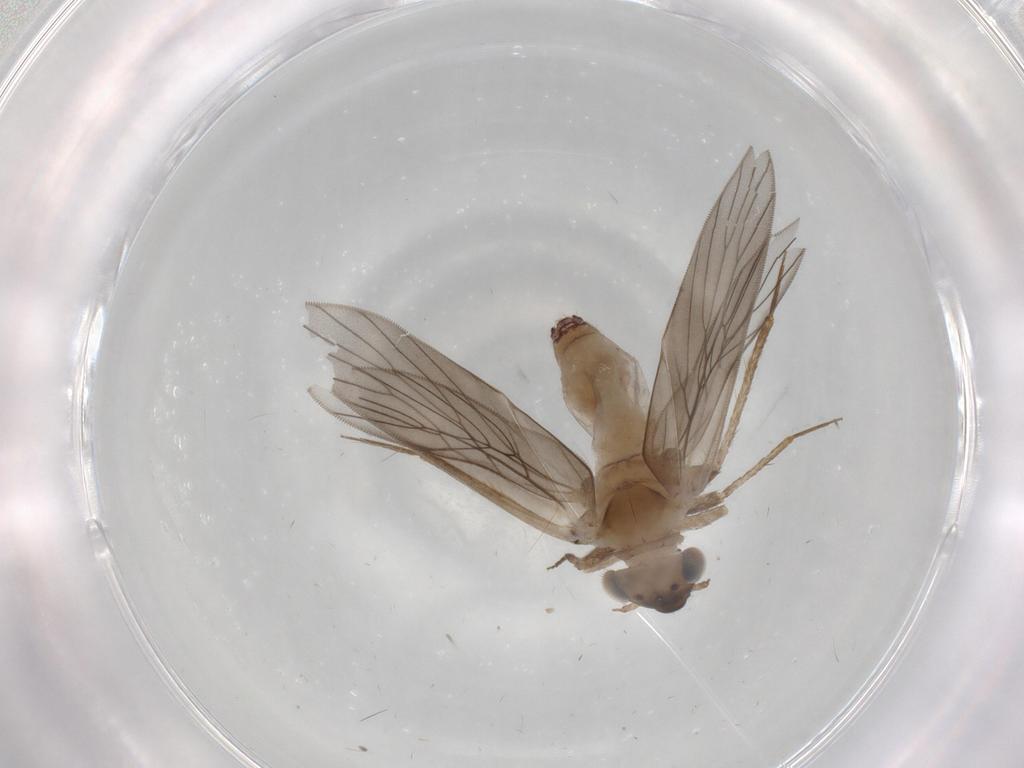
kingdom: Animalia
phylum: Arthropoda
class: Insecta
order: Psocodea
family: Lepidopsocidae
